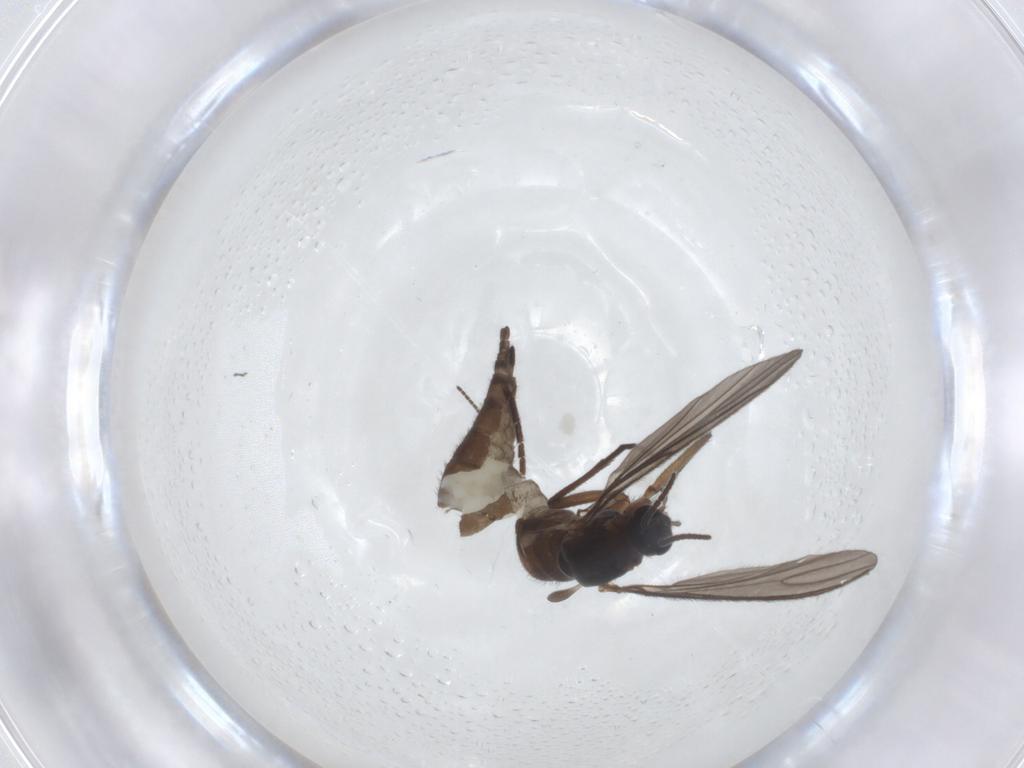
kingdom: Animalia
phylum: Arthropoda
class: Insecta
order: Diptera
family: Sciaridae
